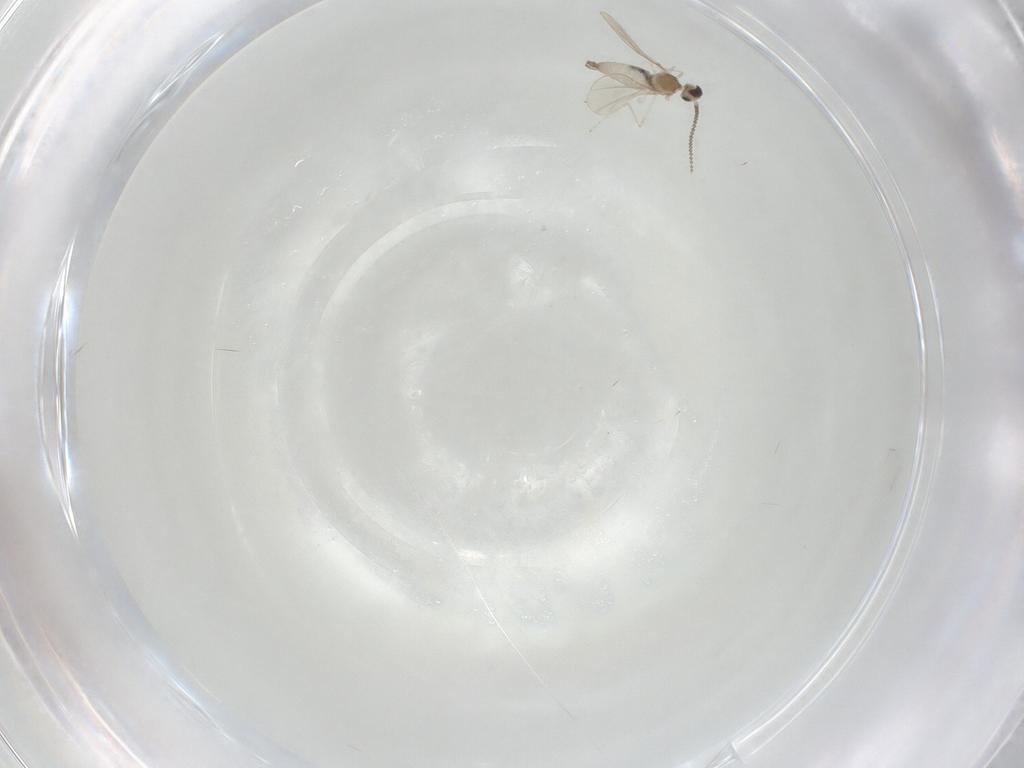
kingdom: Animalia
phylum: Arthropoda
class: Insecta
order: Diptera
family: Cecidomyiidae
